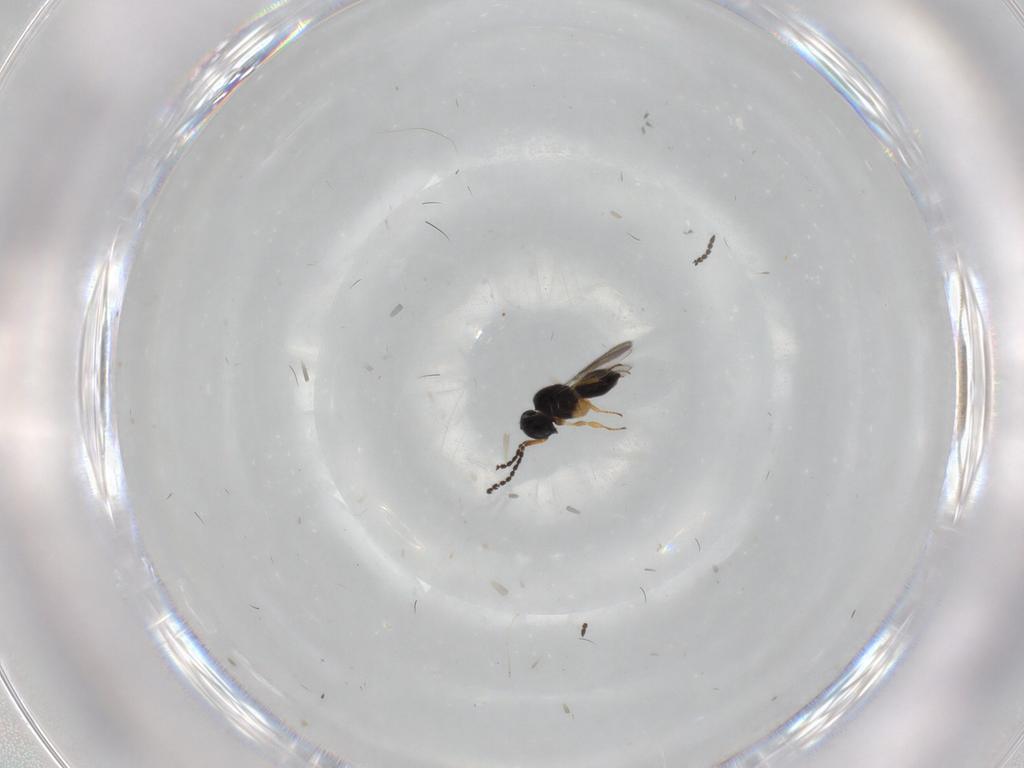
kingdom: Animalia
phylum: Arthropoda
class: Insecta
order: Hymenoptera
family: Scelionidae
